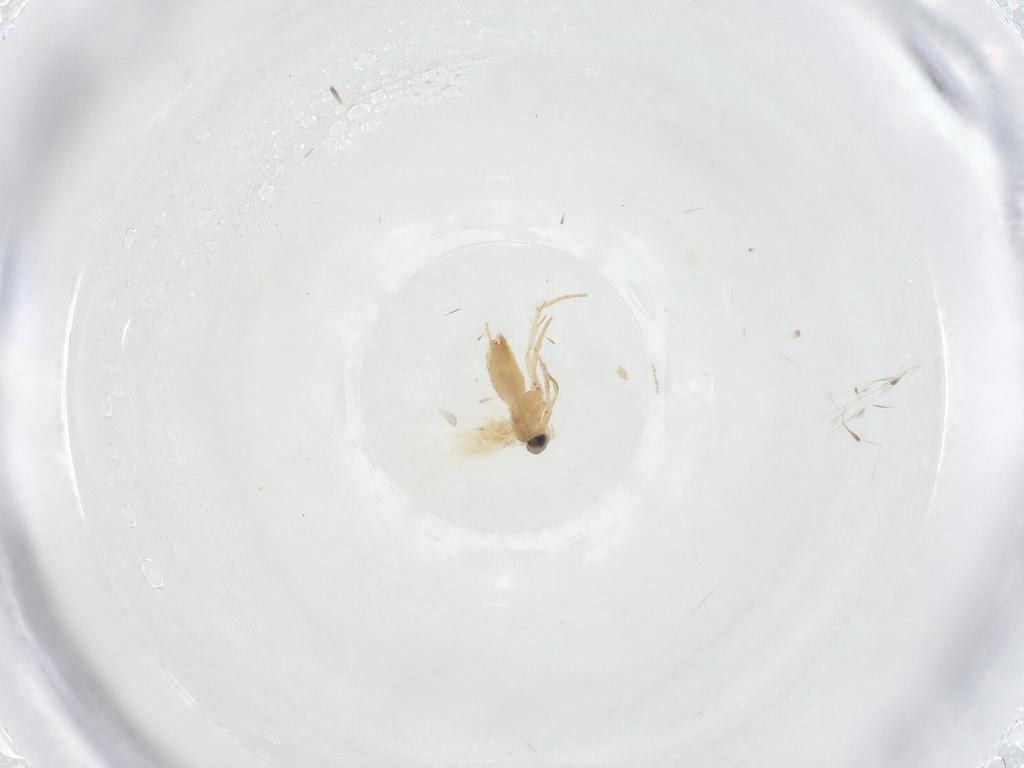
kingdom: Animalia
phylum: Arthropoda
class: Insecta
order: Lepidoptera
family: Crambidae
